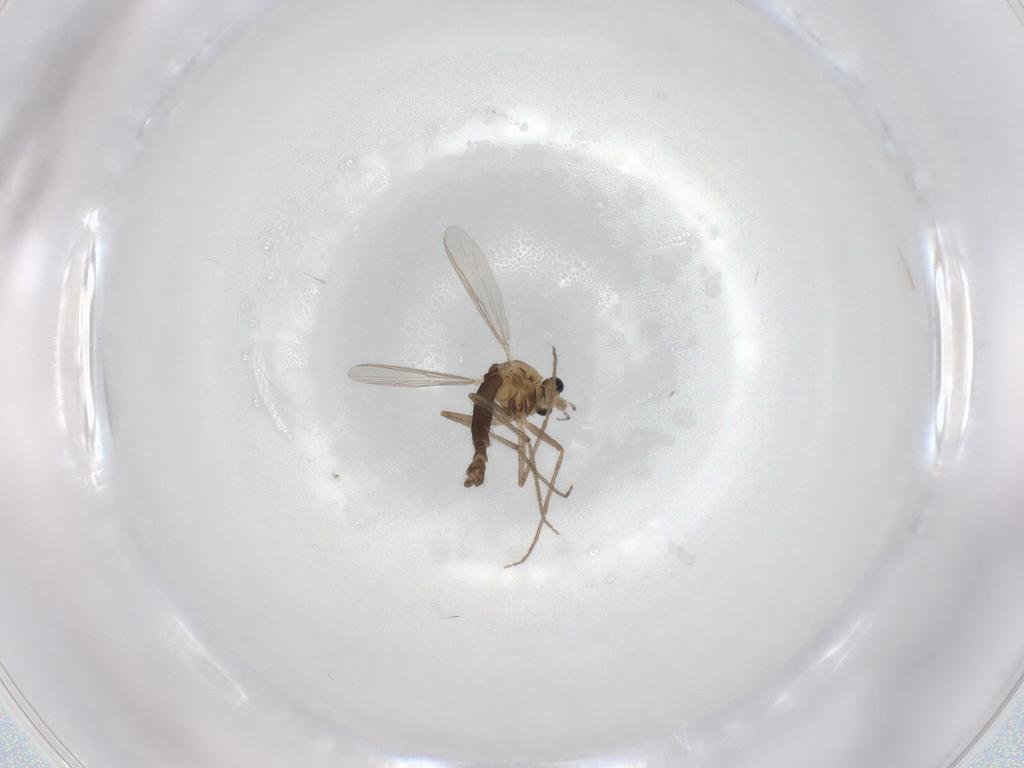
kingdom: Animalia
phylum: Arthropoda
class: Insecta
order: Diptera
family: Chironomidae
